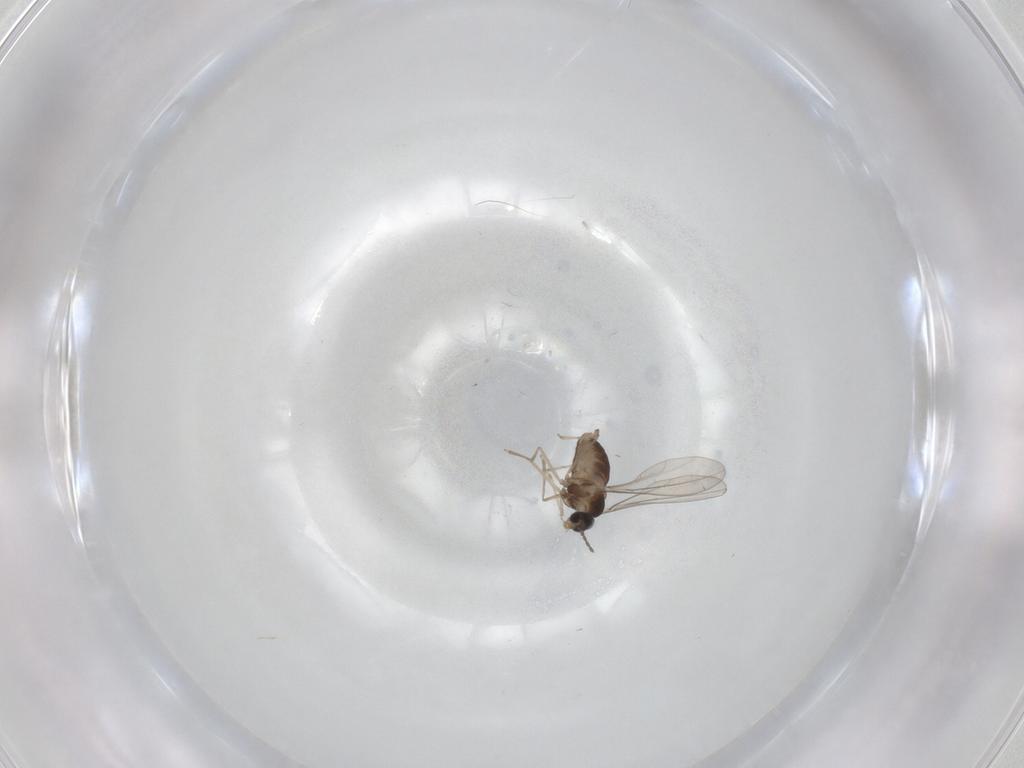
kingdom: Animalia
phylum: Arthropoda
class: Insecta
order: Diptera
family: Cecidomyiidae
